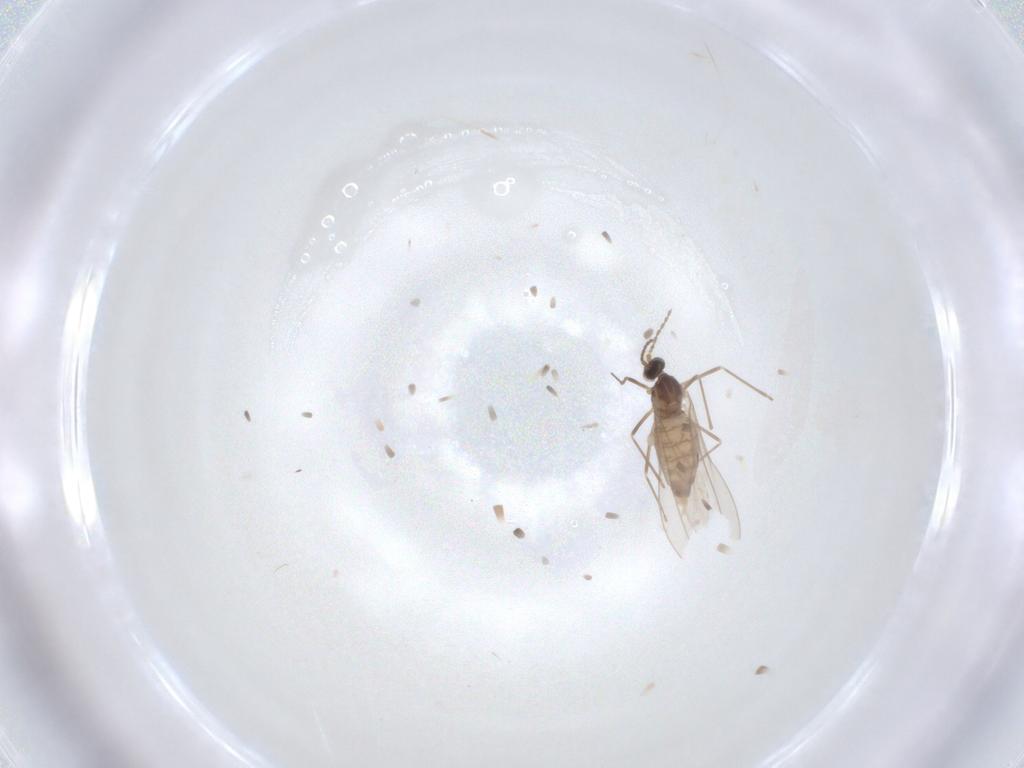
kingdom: Animalia
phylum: Arthropoda
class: Insecta
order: Diptera
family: Cecidomyiidae
